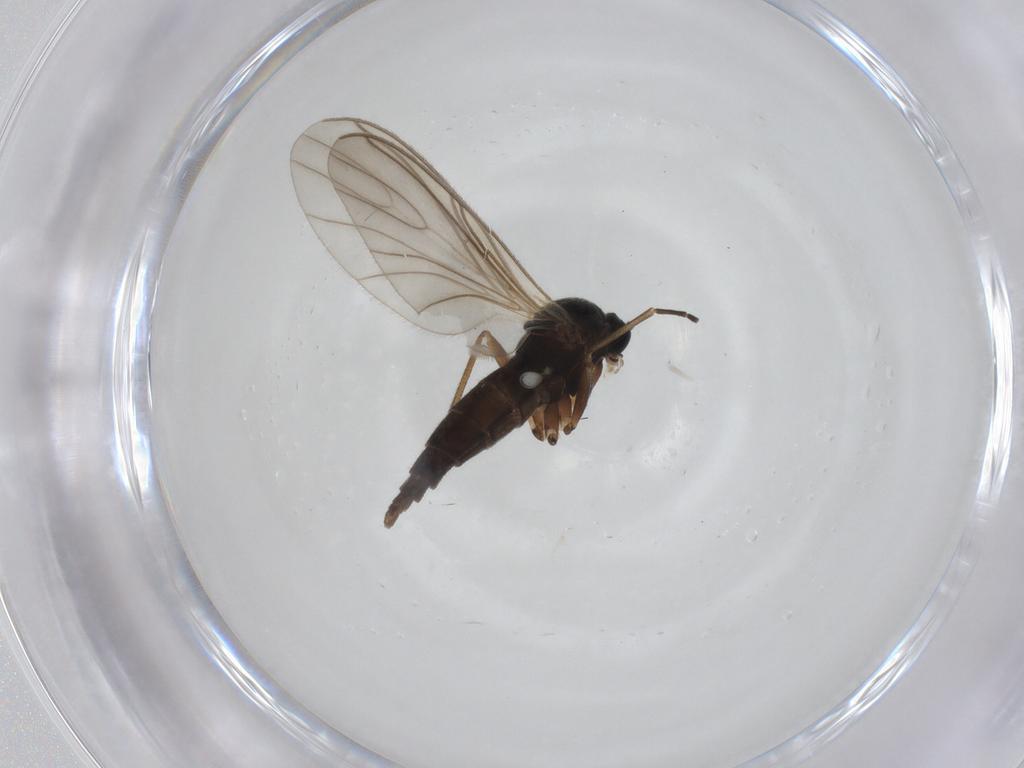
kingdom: Animalia
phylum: Arthropoda
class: Insecta
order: Diptera
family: Sciaridae
